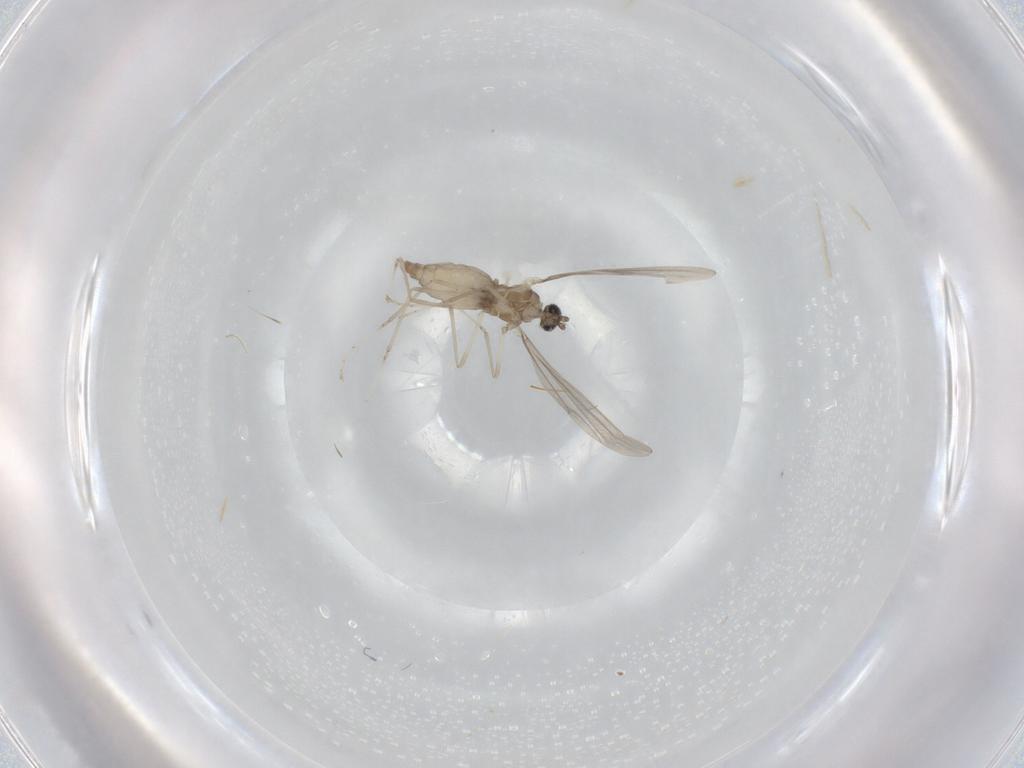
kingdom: Animalia
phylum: Arthropoda
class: Insecta
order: Diptera
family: Cecidomyiidae
